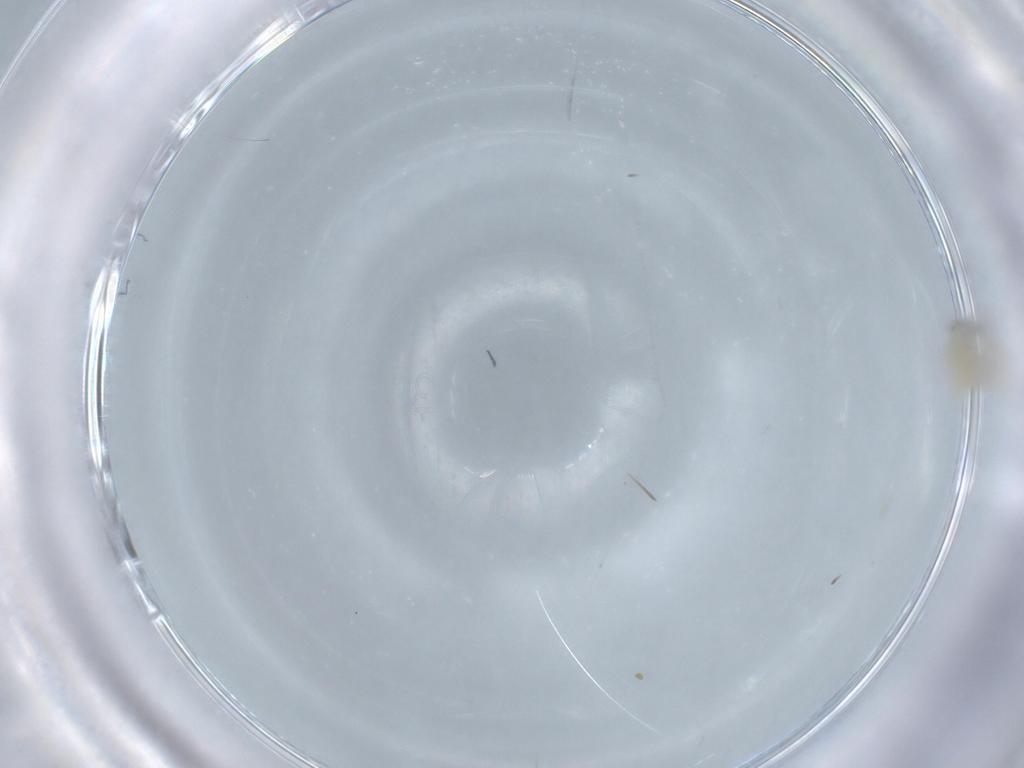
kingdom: Animalia
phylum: Arthropoda
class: Insecta
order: Diptera
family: Cecidomyiidae
